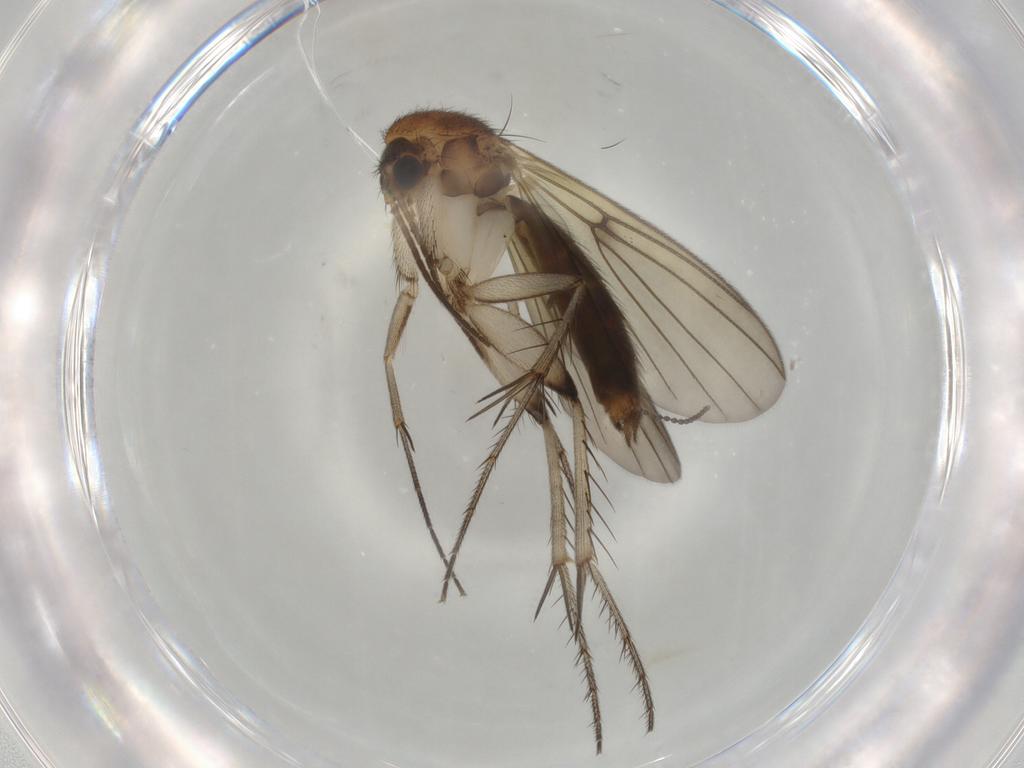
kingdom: Animalia
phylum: Arthropoda
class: Insecta
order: Diptera
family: Mycetophilidae
